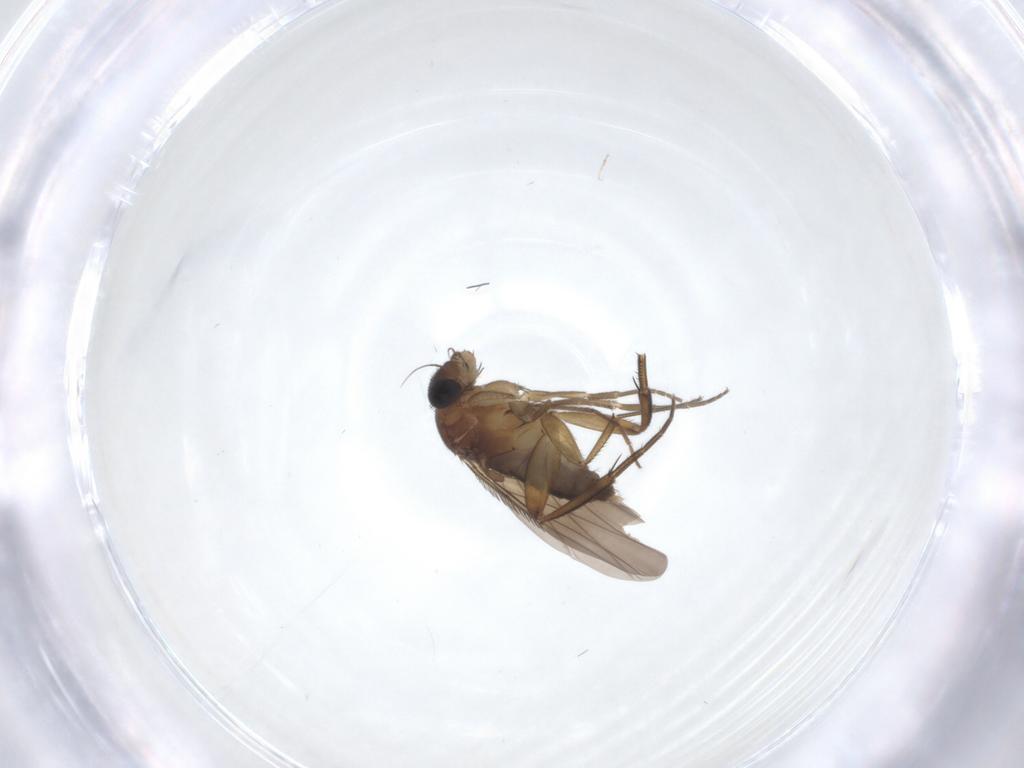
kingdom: Animalia
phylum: Arthropoda
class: Insecta
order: Diptera
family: Phoridae
